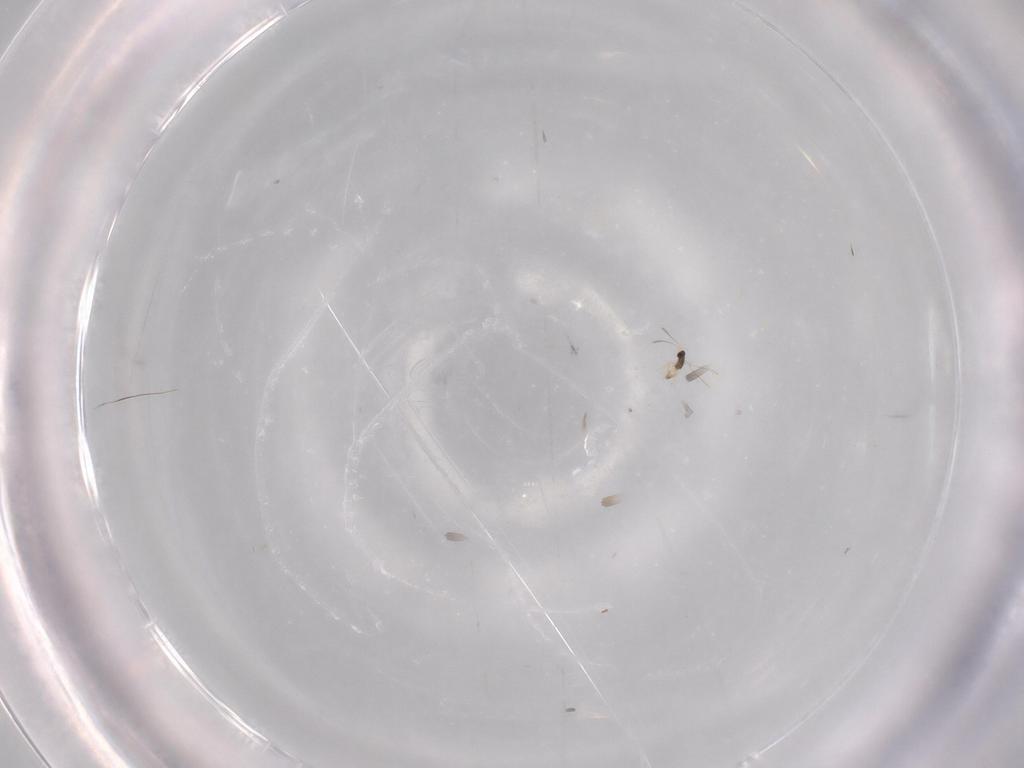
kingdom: Animalia
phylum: Arthropoda
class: Insecta
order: Hymenoptera
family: Mymaridae
